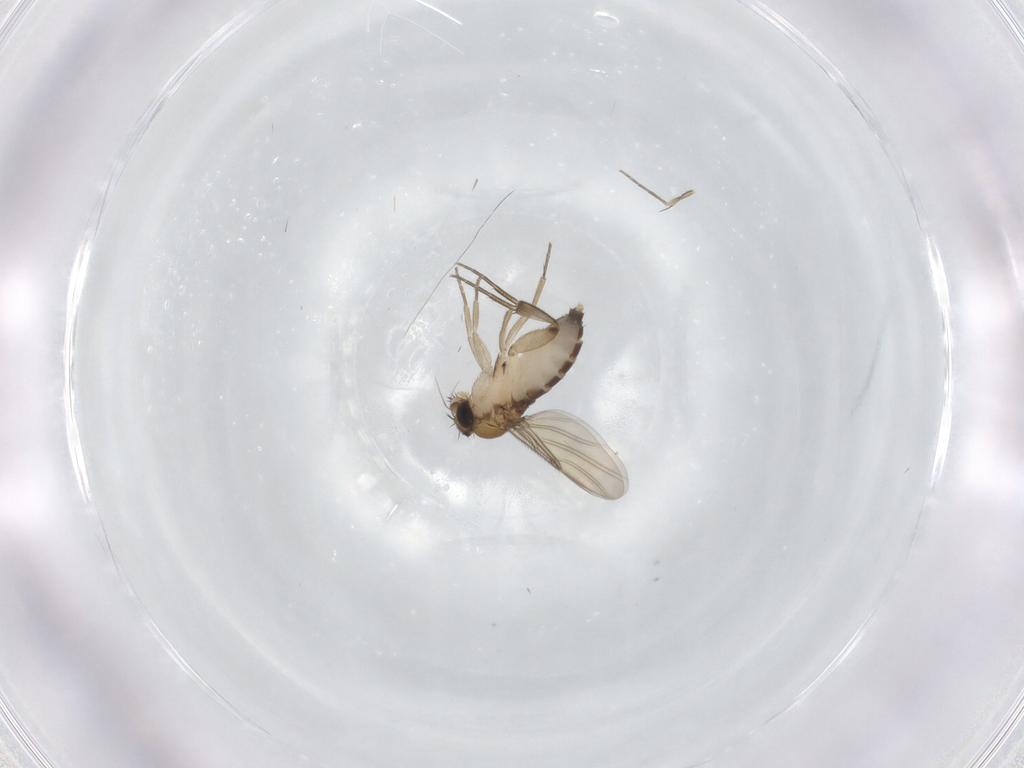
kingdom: Animalia
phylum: Arthropoda
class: Insecta
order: Diptera
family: Phoridae
